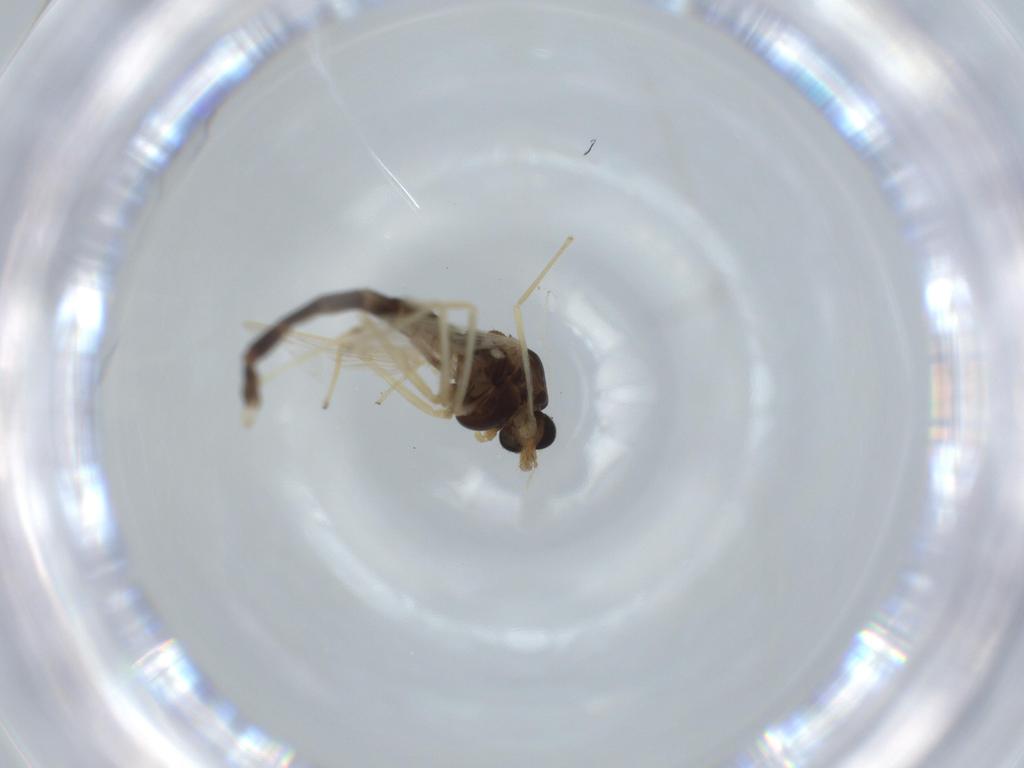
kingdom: Animalia
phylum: Arthropoda
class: Insecta
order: Diptera
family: Chironomidae
